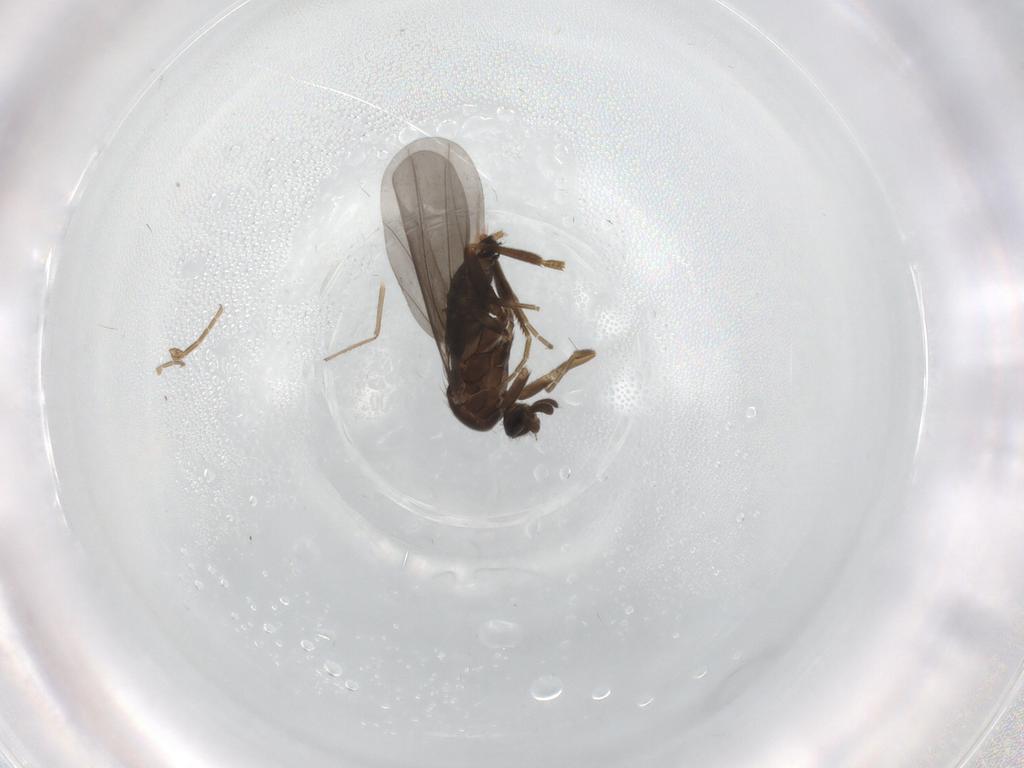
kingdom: Animalia
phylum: Arthropoda
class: Insecta
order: Diptera
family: Phoridae
